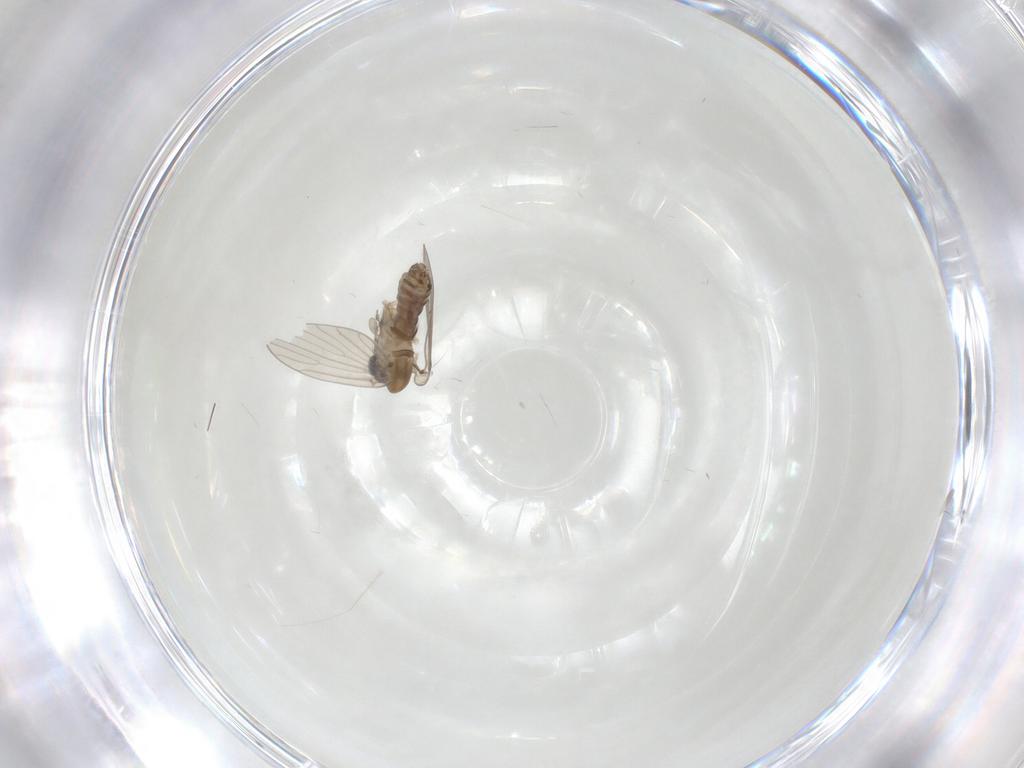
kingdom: Animalia
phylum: Arthropoda
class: Insecta
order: Diptera
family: Psychodidae
